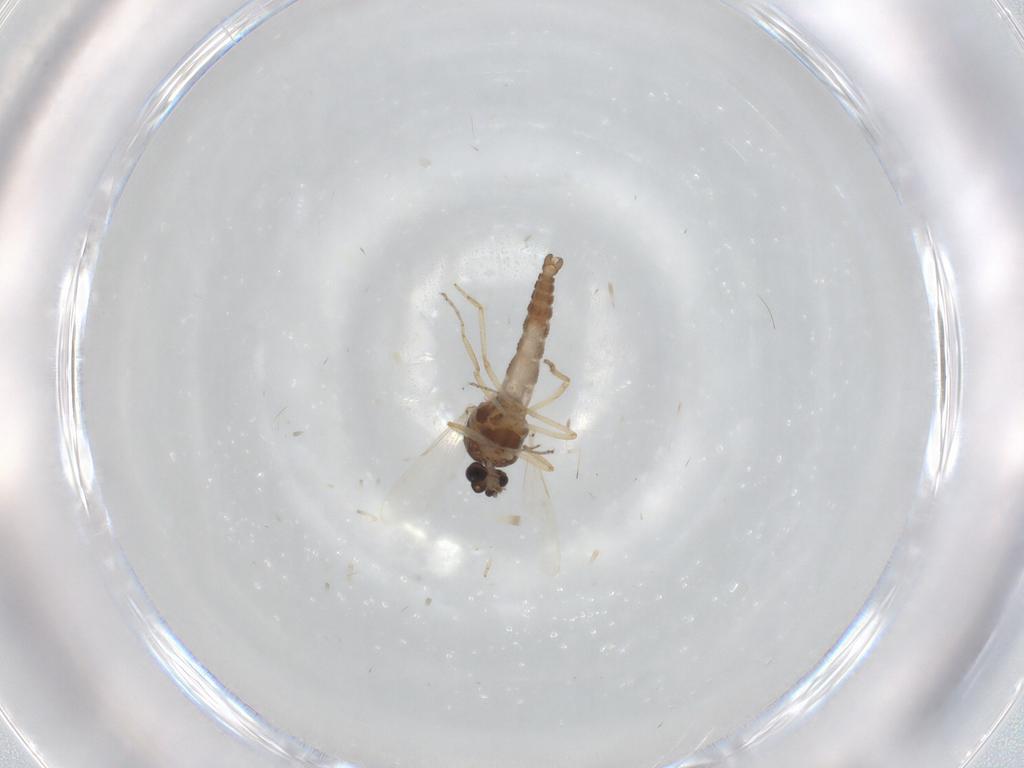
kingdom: Animalia
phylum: Arthropoda
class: Insecta
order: Diptera
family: Ceratopogonidae
